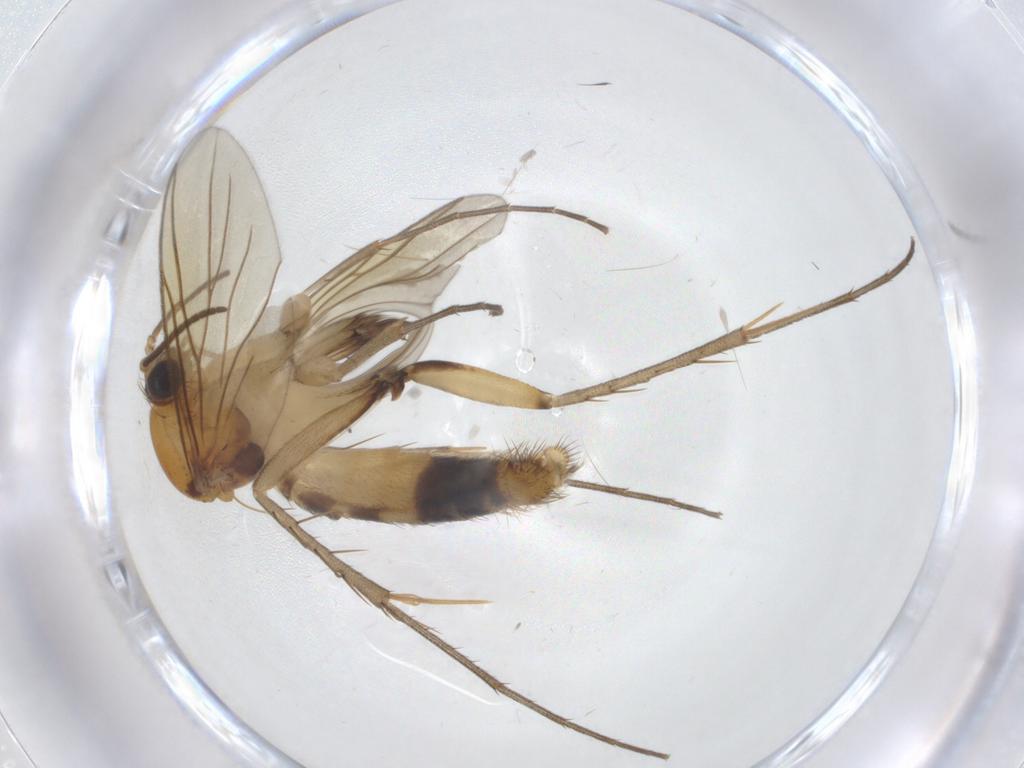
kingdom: Animalia
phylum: Arthropoda
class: Insecta
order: Diptera
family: Mycetophilidae
